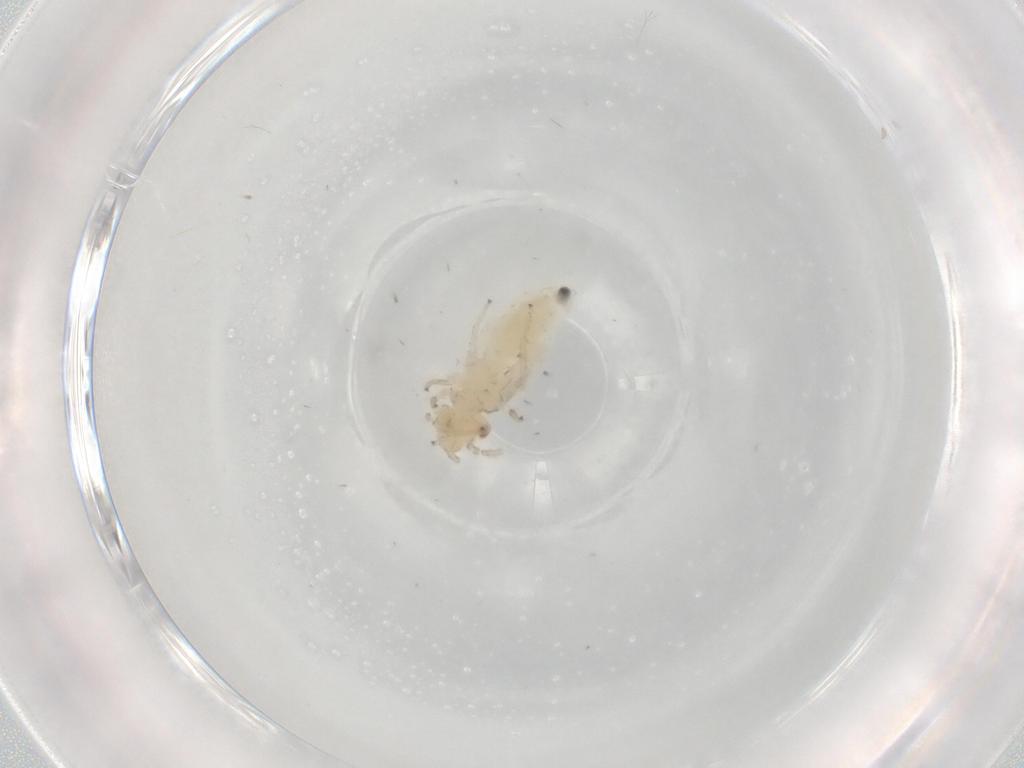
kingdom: Animalia
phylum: Arthropoda
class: Insecta
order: Psocodea
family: Caeciliusidae
